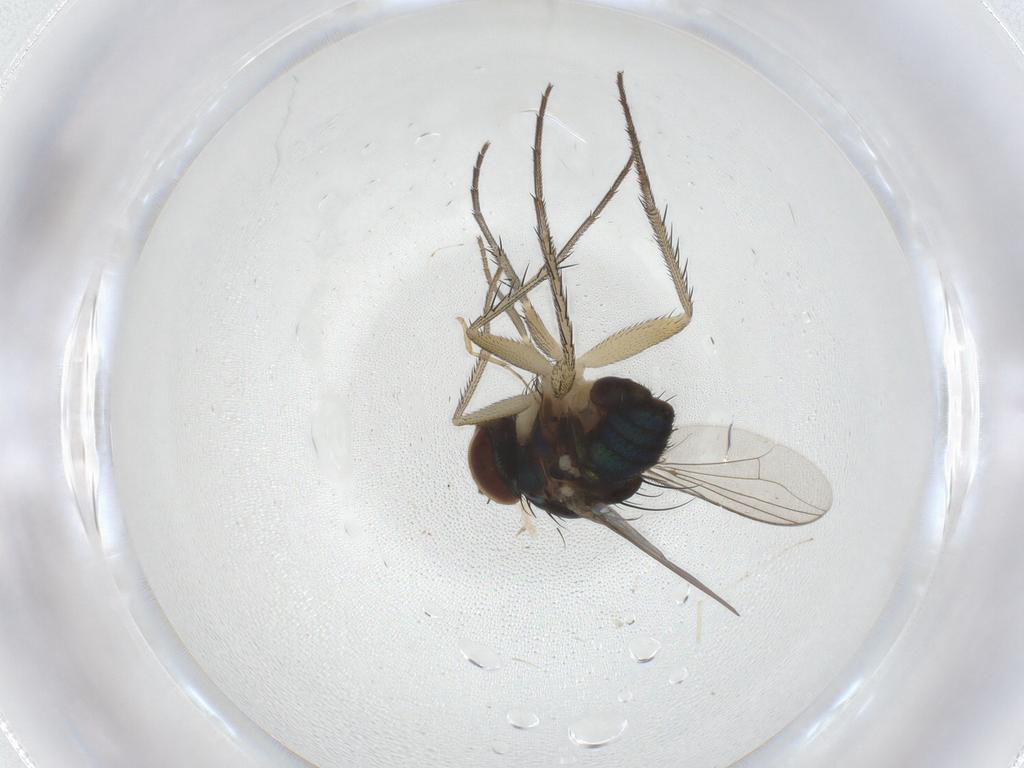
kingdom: Animalia
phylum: Arthropoda
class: Insecta
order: Diptera
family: Dolichopodidae
